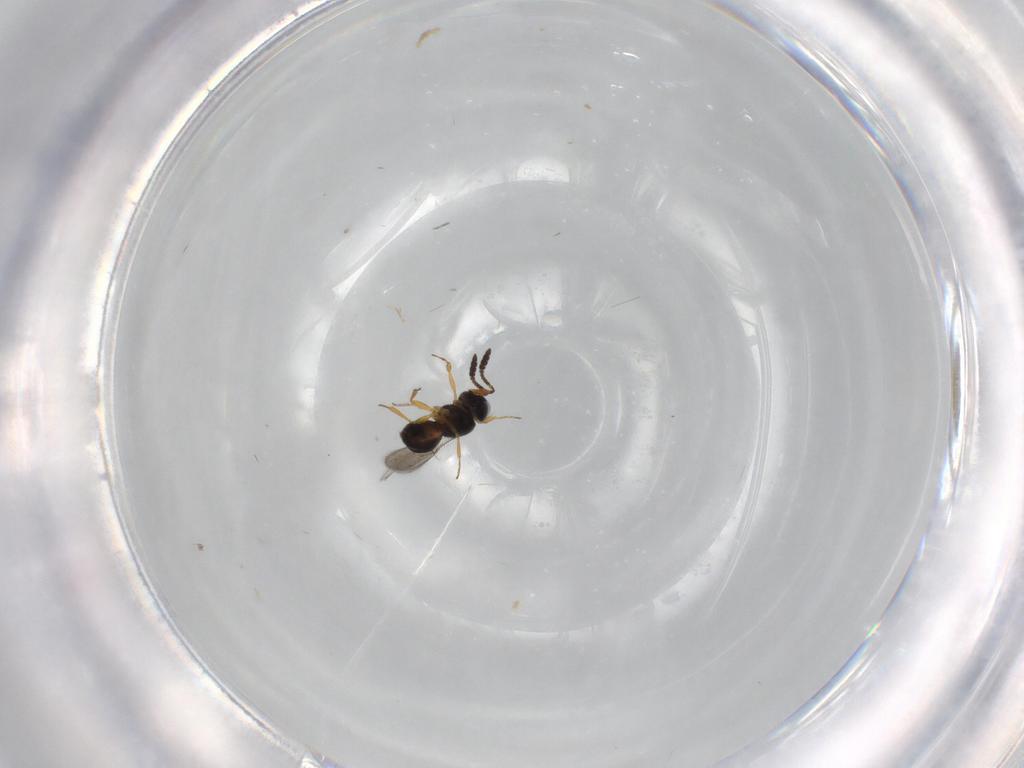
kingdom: Animalia
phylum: Arthropoda
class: Insecta
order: Hymenoptera
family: Scelionidae
